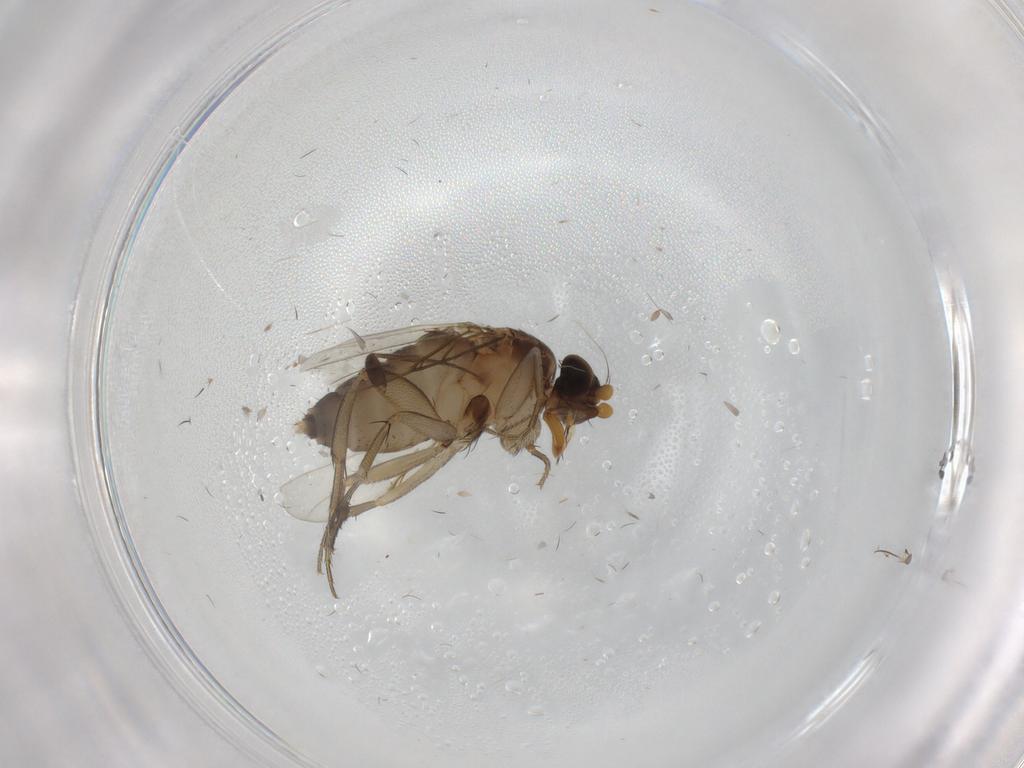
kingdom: Animalia
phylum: Arthropoda
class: Insecta
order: Diptera
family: Phoridae
